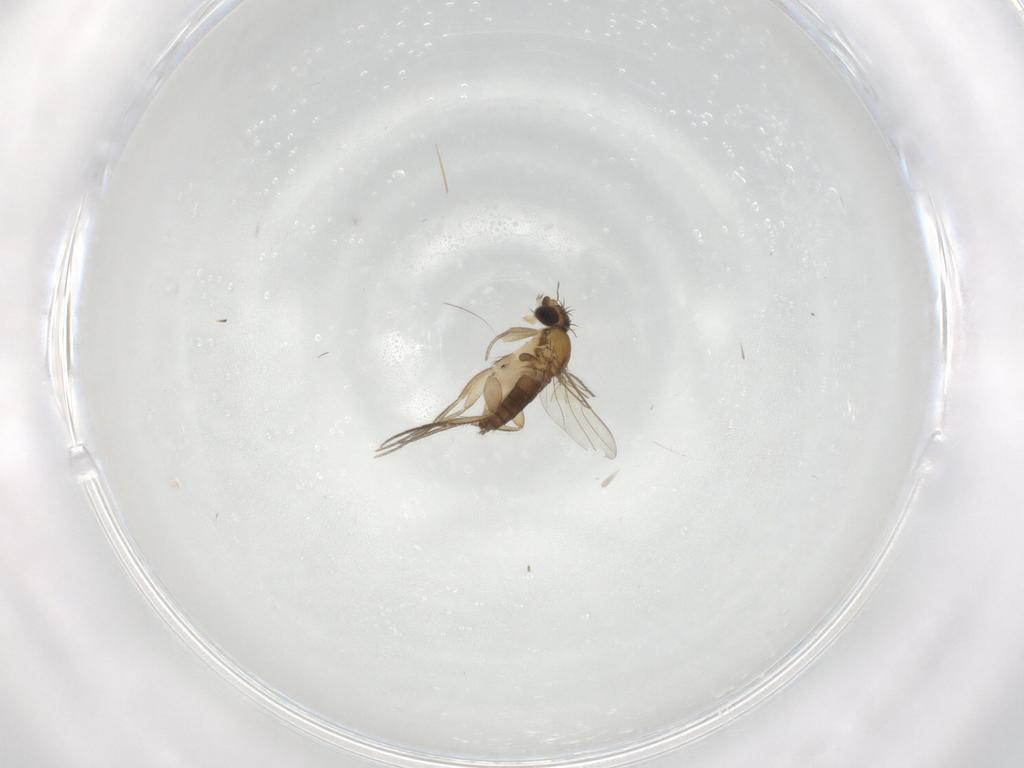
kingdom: Animalia
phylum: Arthropoda
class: Insecta
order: Diptera
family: Phoridae
